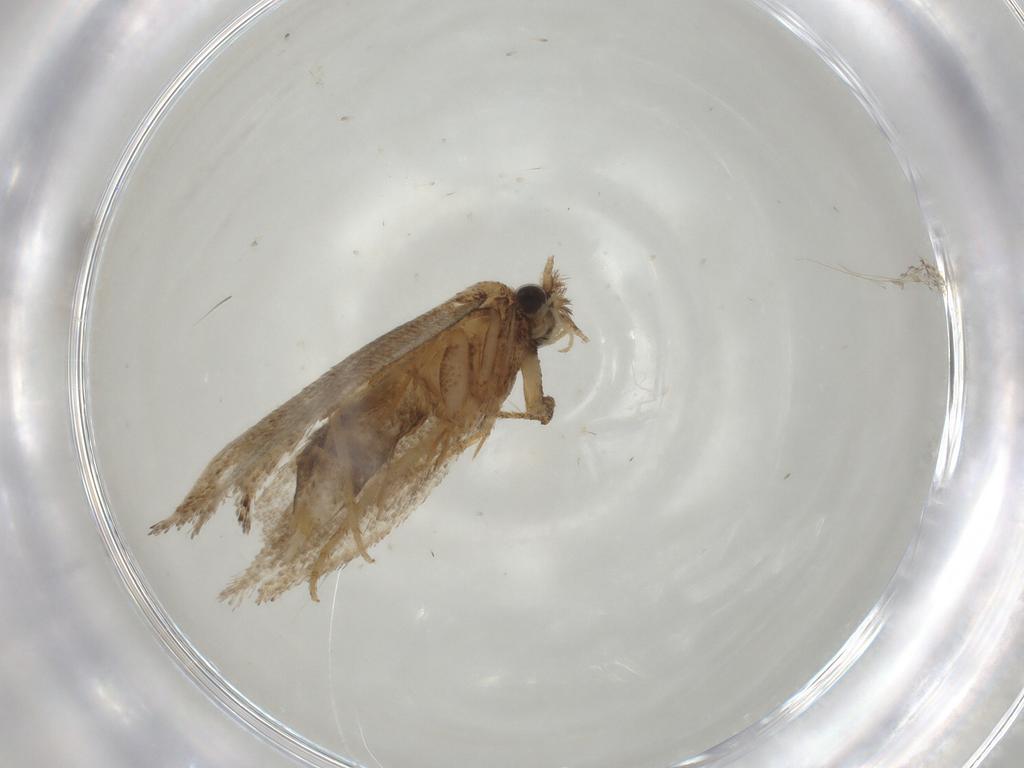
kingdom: Animalia
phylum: Arthropoda
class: Insecta
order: Lepidoptera
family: Nepticulidae
